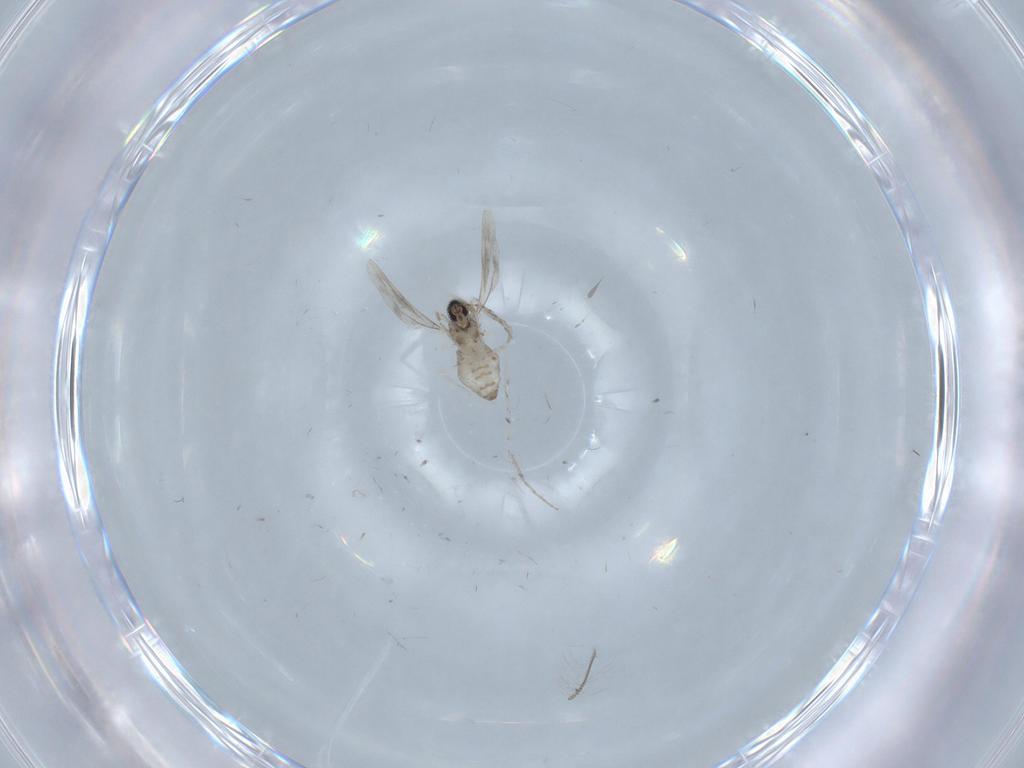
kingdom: Animalia
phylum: Arthropoda
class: Insecta
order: Diptera
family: Cecidomyiidae
